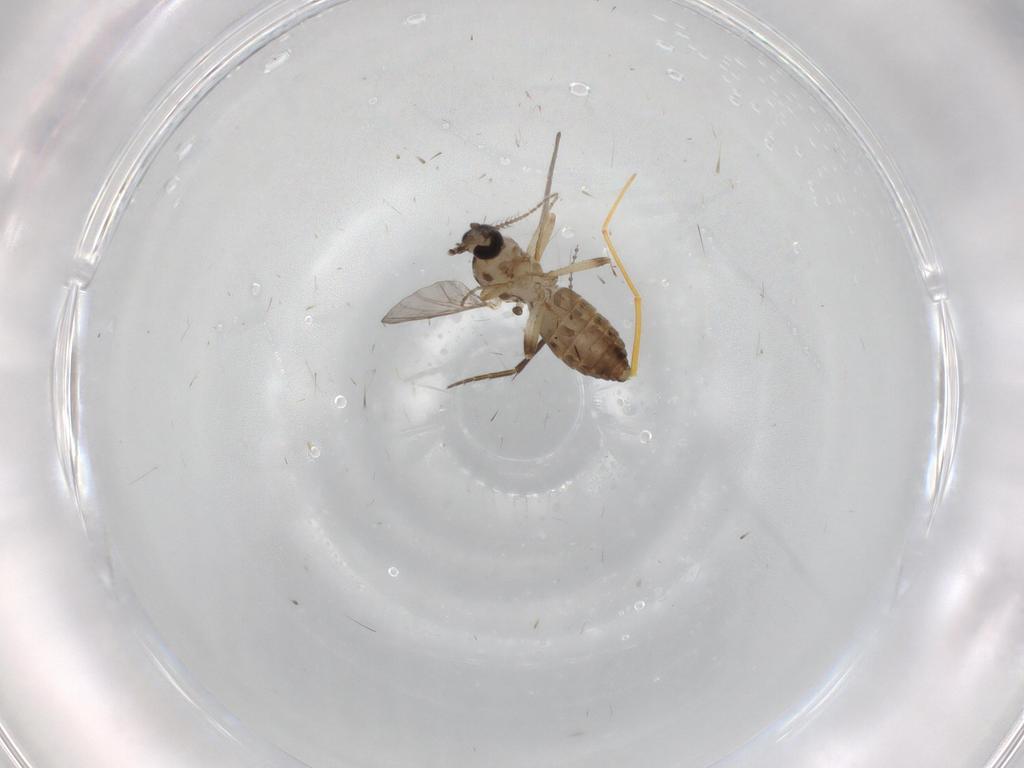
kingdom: Animalia
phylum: Arthropoda
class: Insecta
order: Diptera
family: Ceratopogonidae
